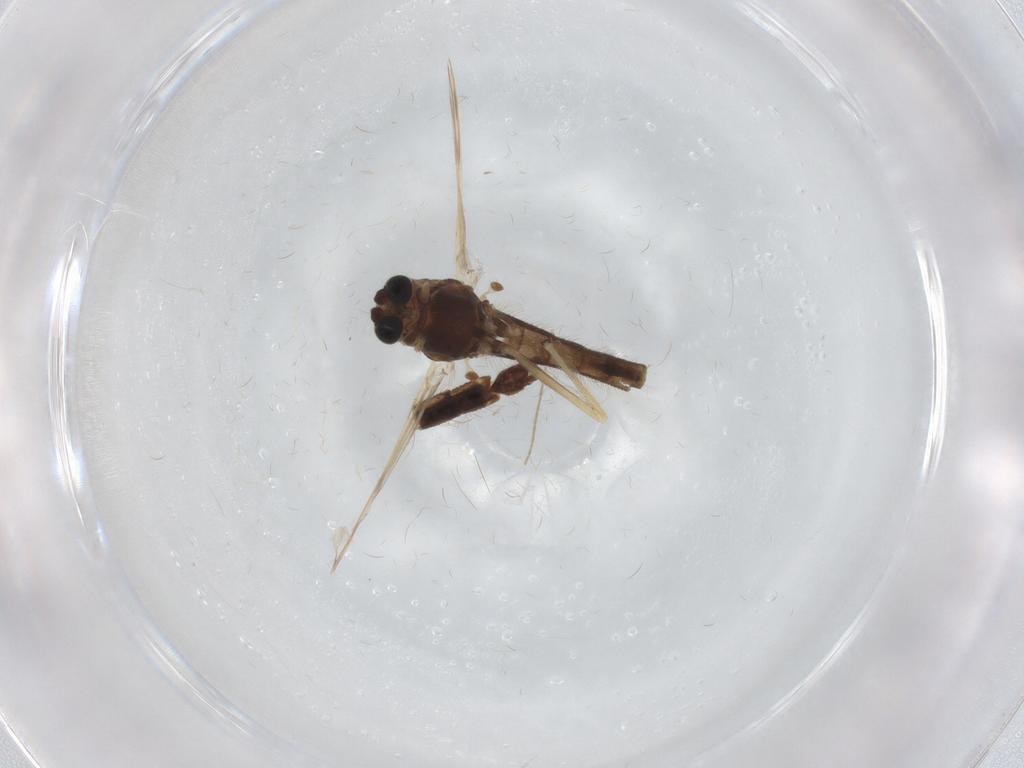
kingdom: Animalia
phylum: Arthropoda
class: Insecta
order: Diptera
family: Chironomidae
